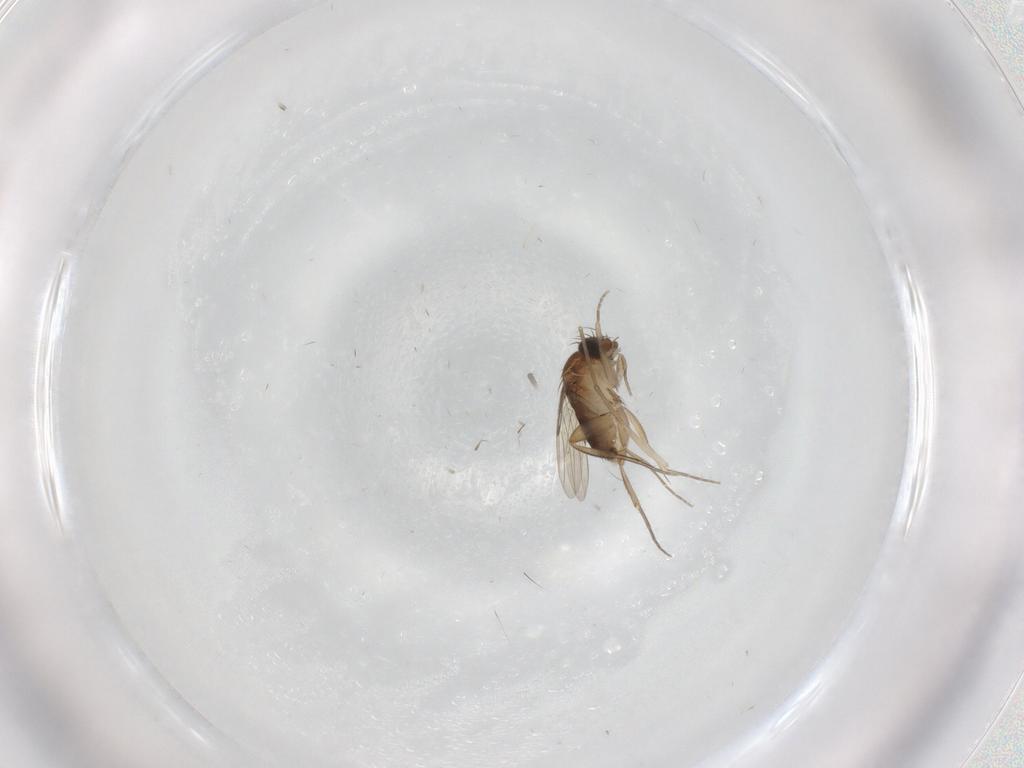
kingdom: Animalia
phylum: Arthropoda
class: Insecta
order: Diptera
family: Phoridae
